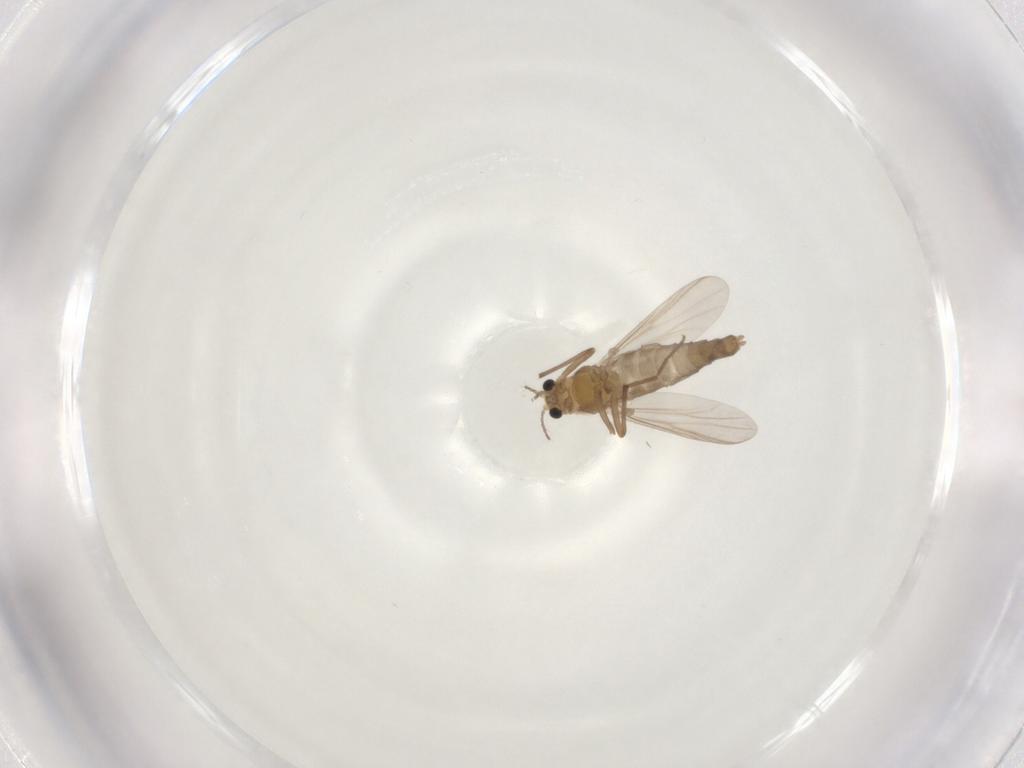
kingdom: Animalia
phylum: Arthropoda
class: Insecta
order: Diptera
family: Chironomidae
